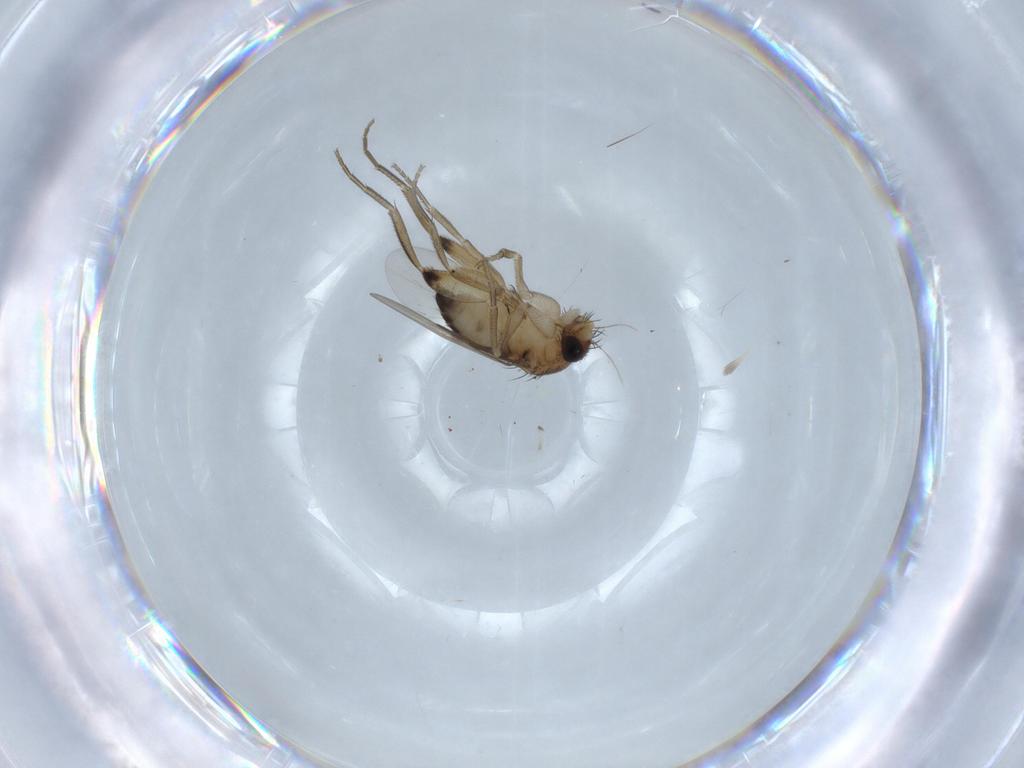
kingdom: Animalia
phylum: Arthropoda
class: Insecta
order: Diptera
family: Phoridae
